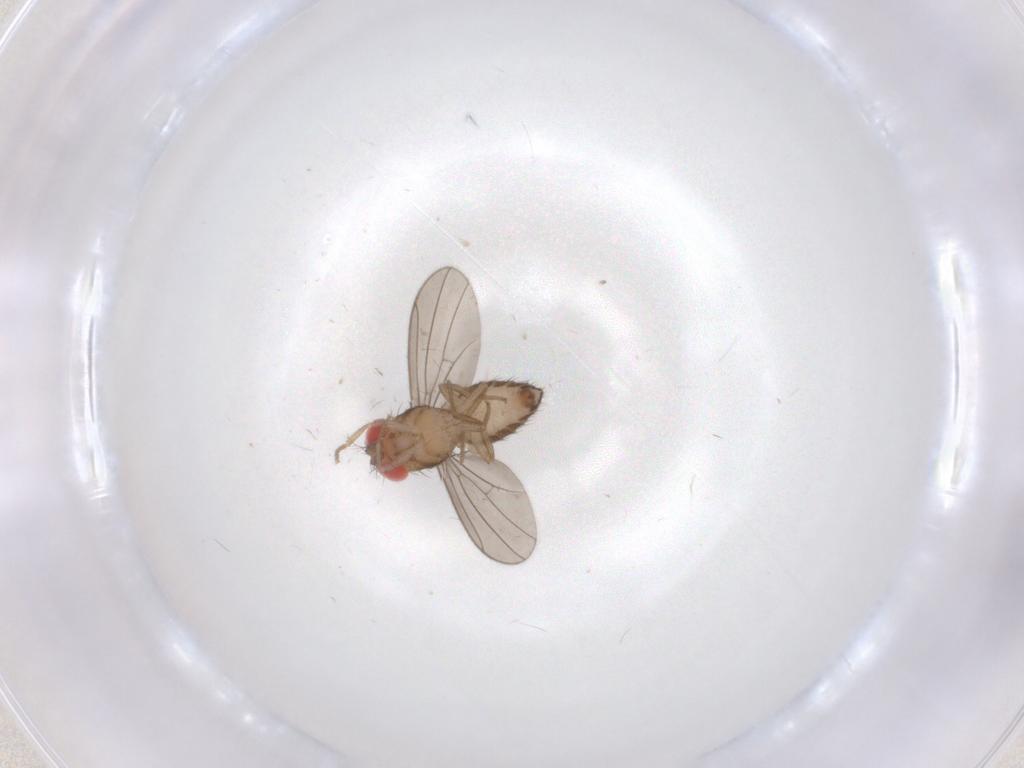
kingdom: Animalia
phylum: Arthropoda
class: Insecta
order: Diptera
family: Drosophilidae
